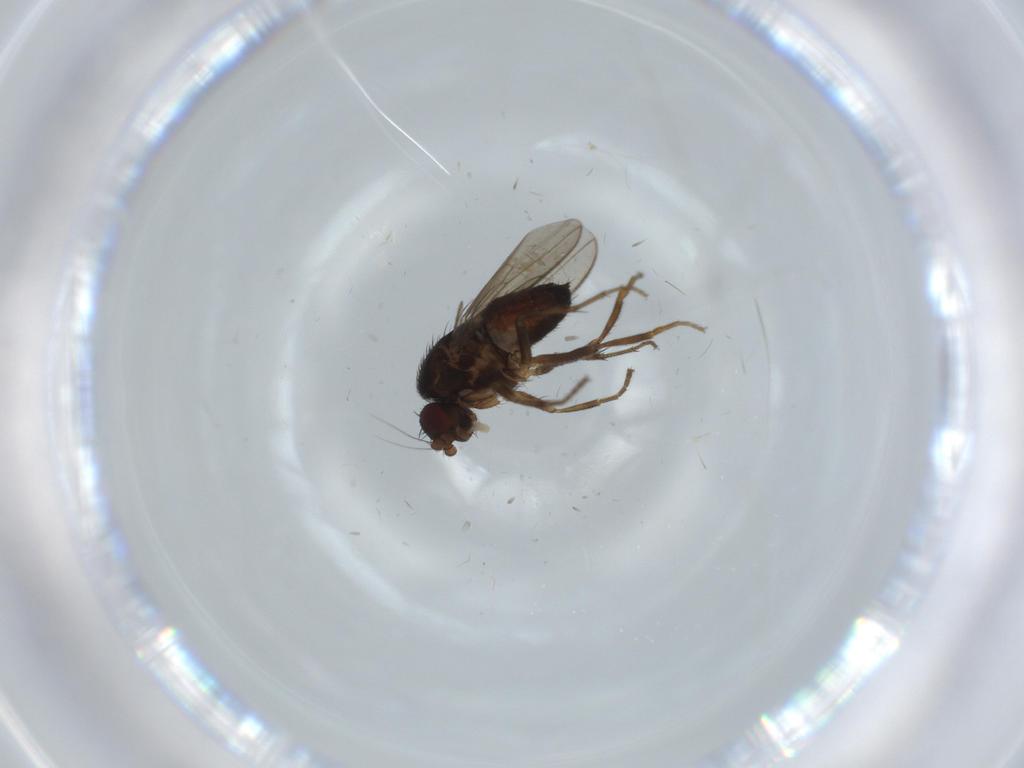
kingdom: Animalia
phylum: Arthropoda
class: Insecta
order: Diptera
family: Sphaeroceridae
